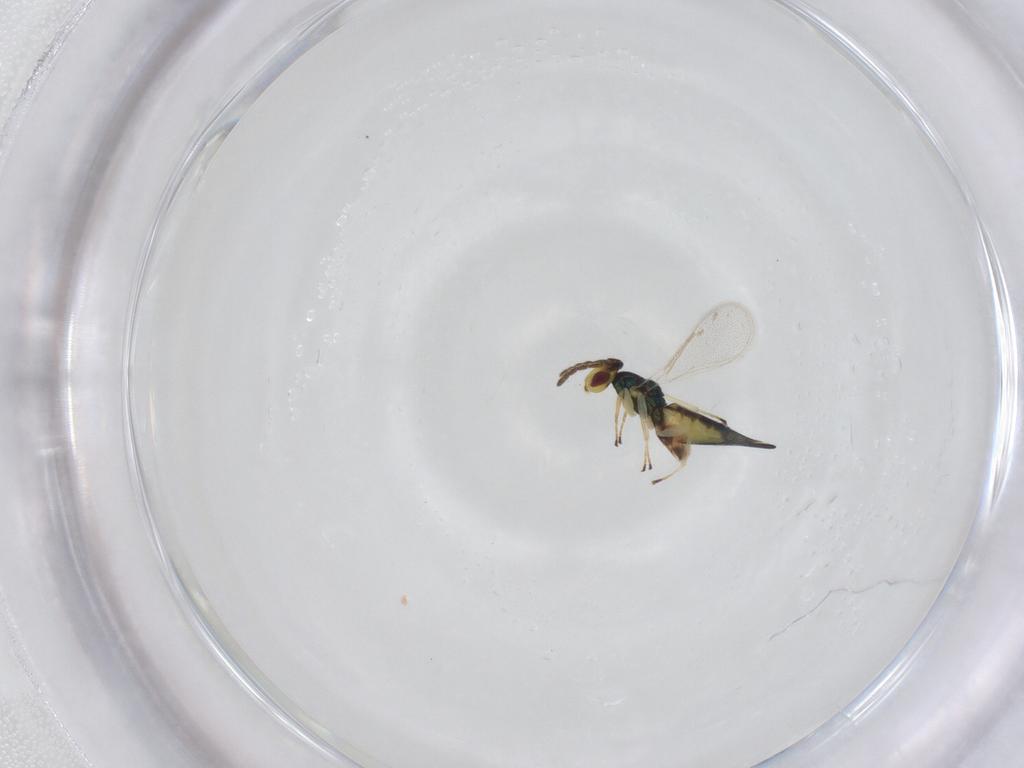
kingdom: Animalia
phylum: Arthropoda
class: Insecta
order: Hymenoptera
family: Eulophidae
